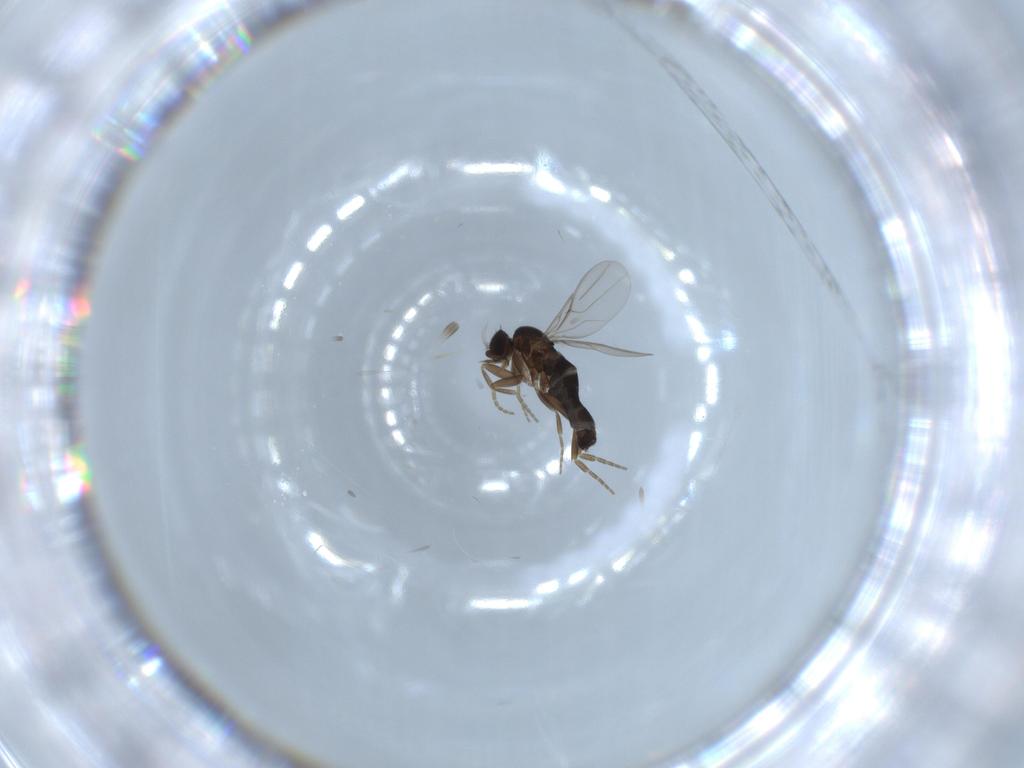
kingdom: Animalia
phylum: Arthropoda
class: Insecta
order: Diptera
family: Phoridae
